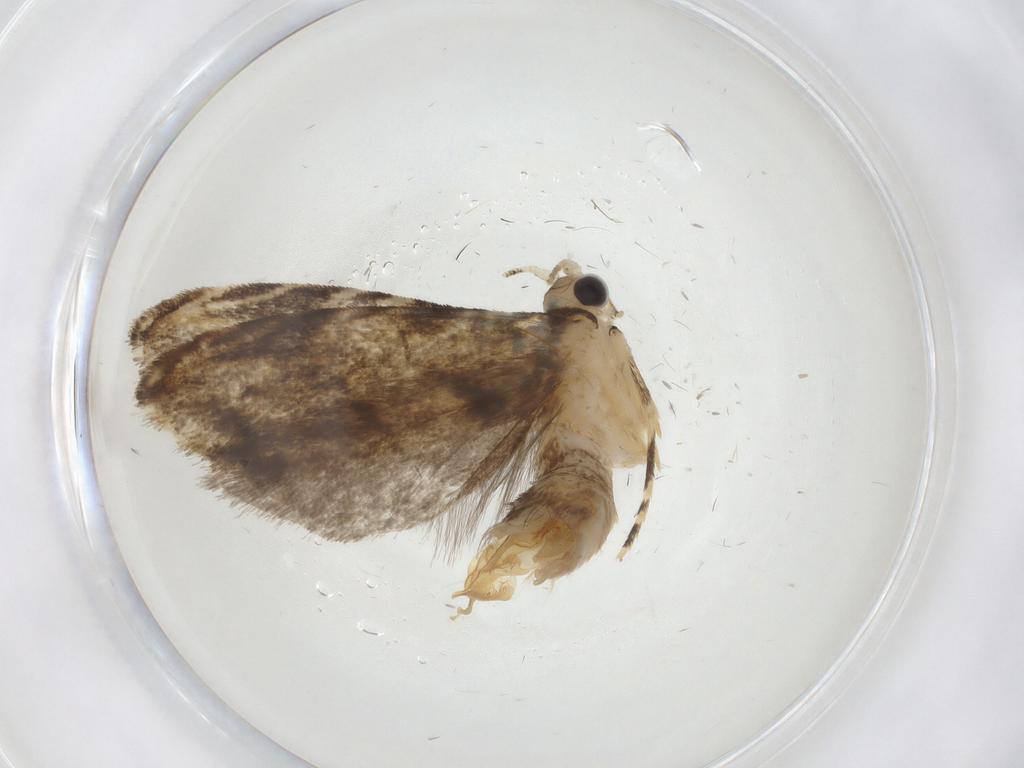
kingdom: Animalia
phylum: Arthropoda
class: Insecta
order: Lepidoptera
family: Tineidae
